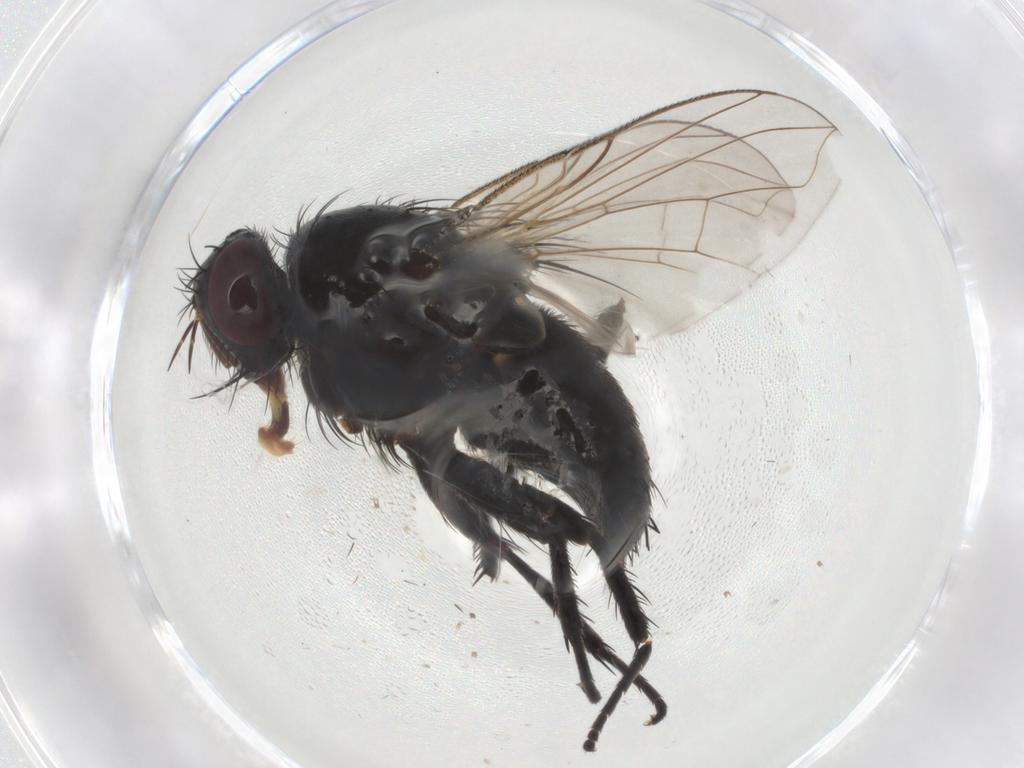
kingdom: Animalia
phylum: Arthropoda
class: Insecta
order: Diptera
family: Tachinidae
